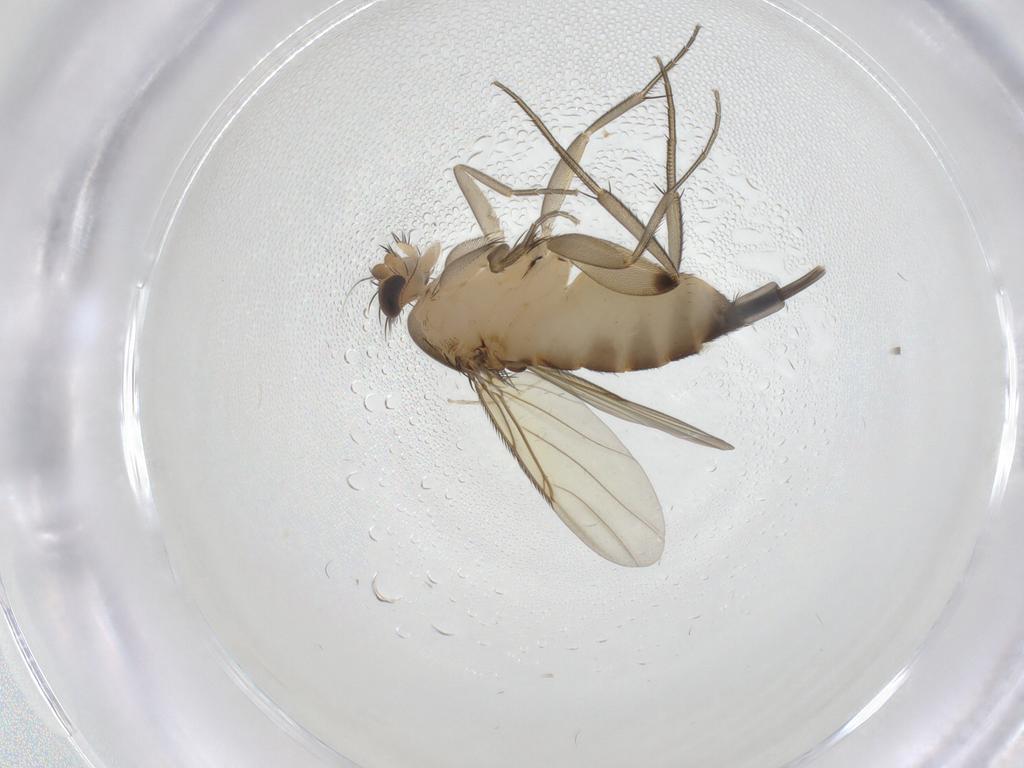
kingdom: Animalia
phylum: Arthropoda
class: Insecta
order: Diptera
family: Phoridae
